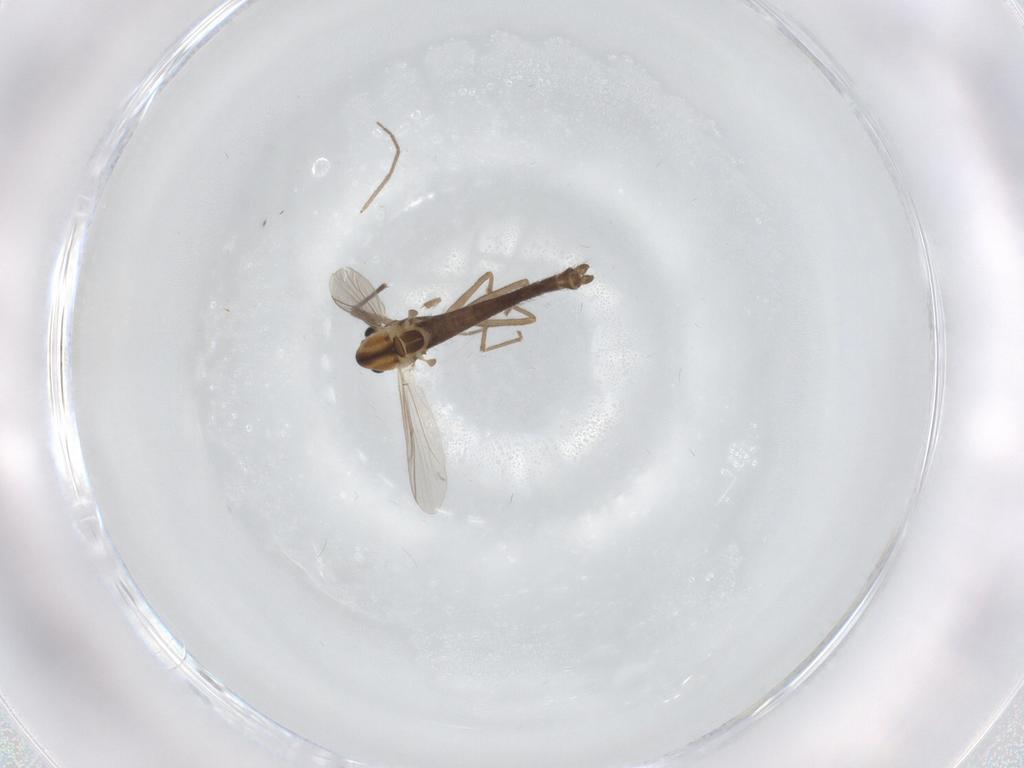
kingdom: Animalia
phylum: Arthropoda
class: Insecta
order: Diptera
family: Chironomidae
